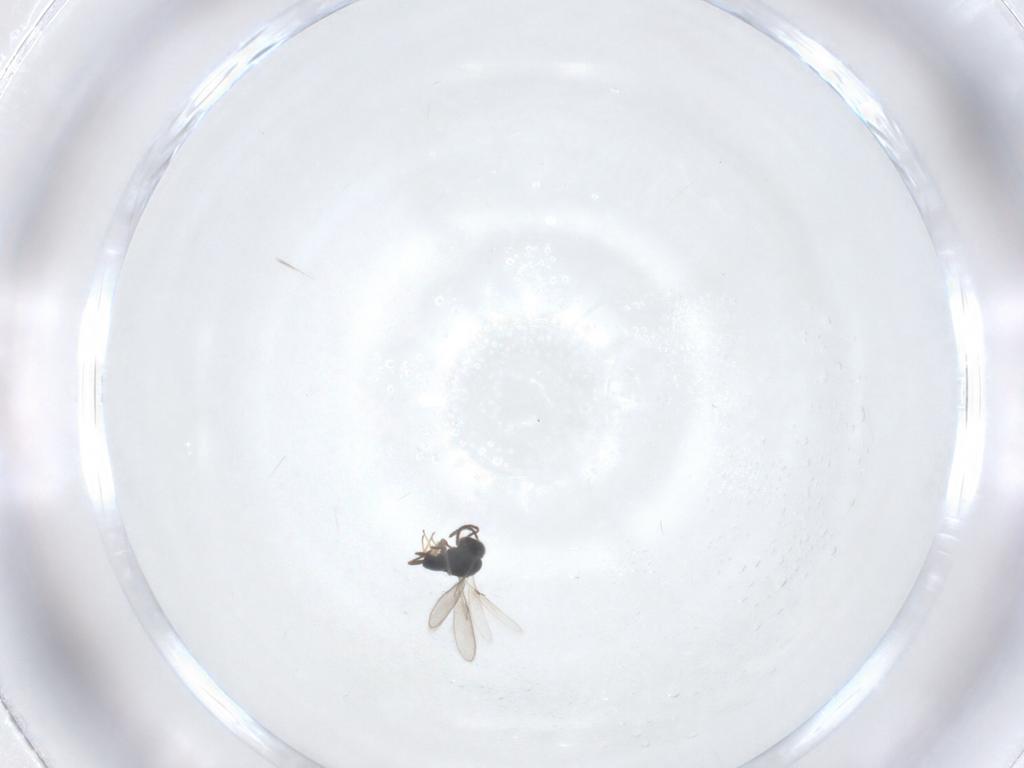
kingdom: Animalia
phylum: Arthropoda
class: Insecta
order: Hymenoptera
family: Scelionidae
